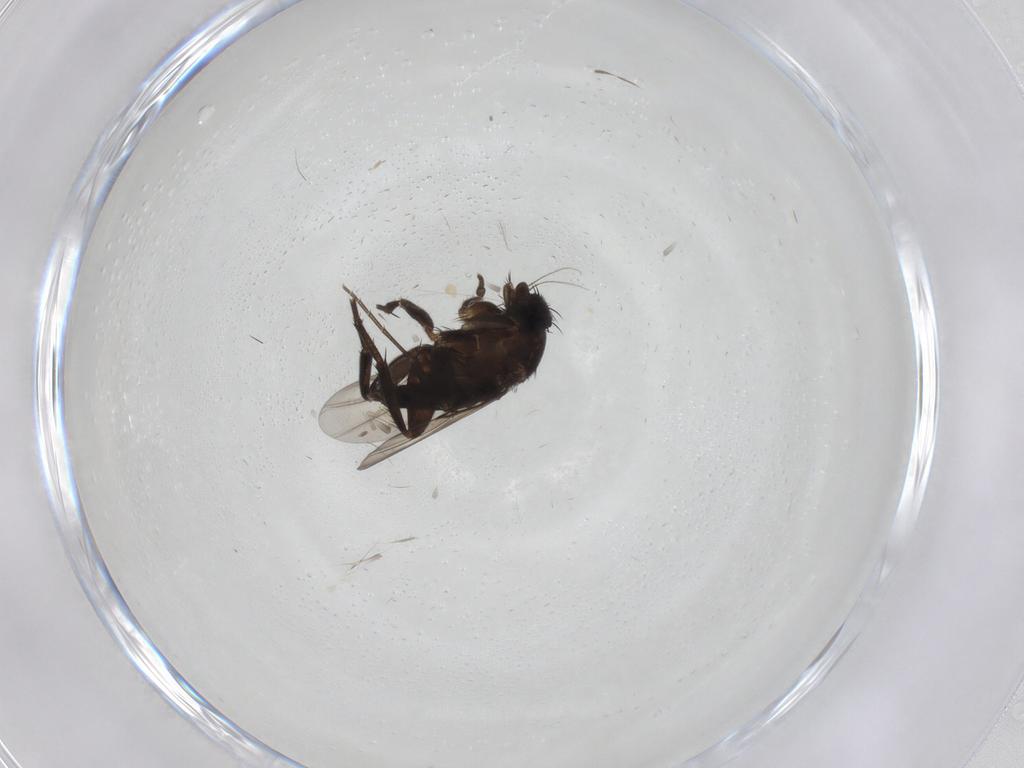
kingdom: Animalia
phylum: Arthropoda
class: Insecta
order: Diptera
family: Phoridae
